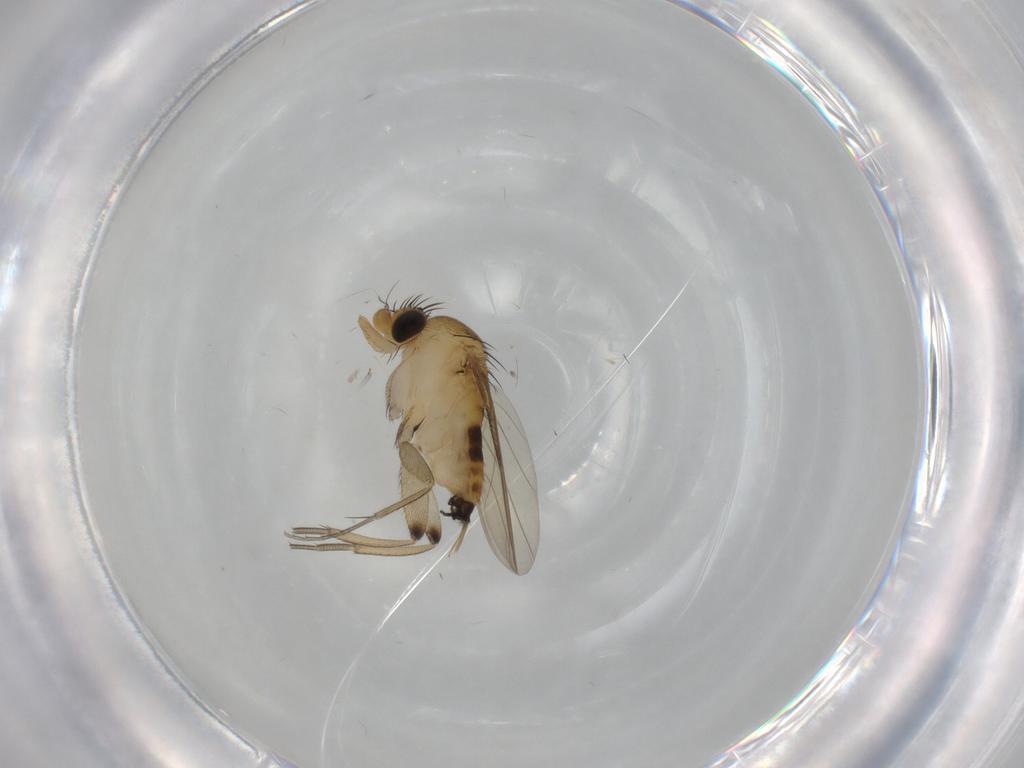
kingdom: Animalia
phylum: Arthropoda
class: Insecta
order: Diptera
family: Phoridae
